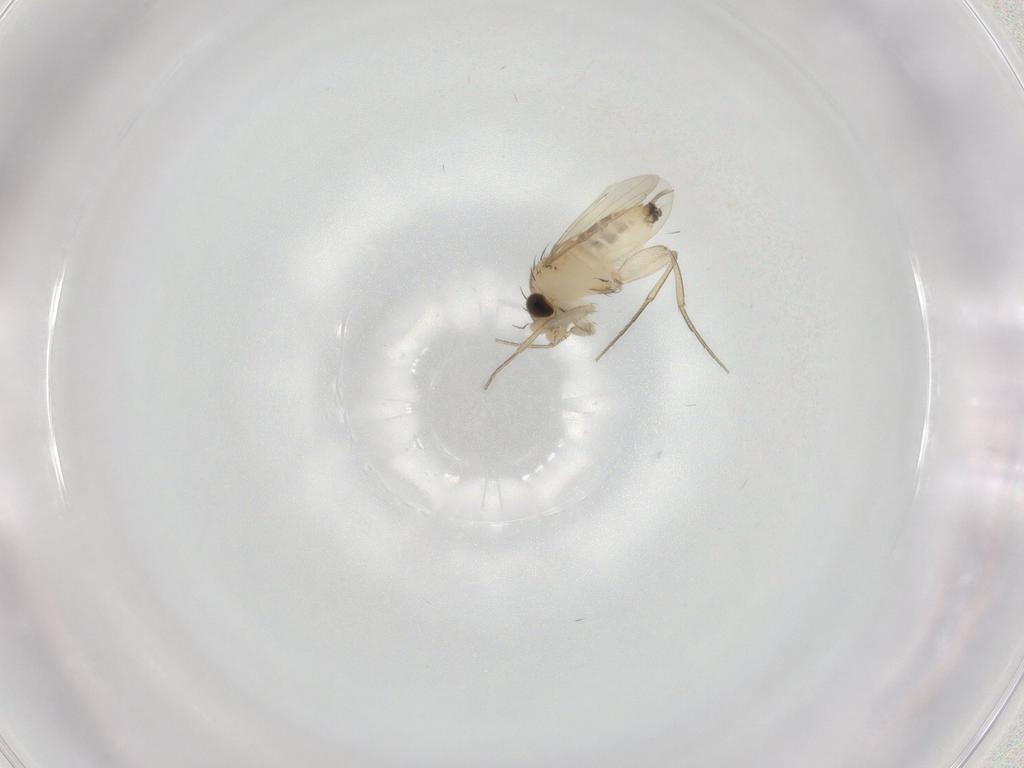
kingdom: Animalia
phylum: Arthropoda
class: Insecta
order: Diptera
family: Phoridae
